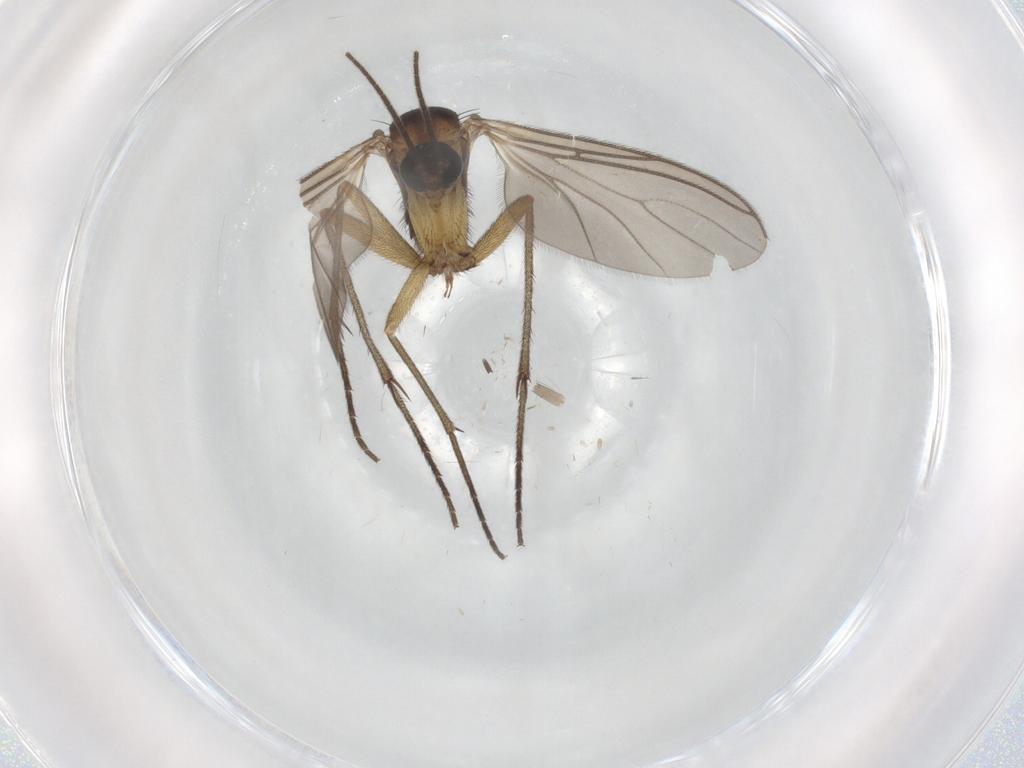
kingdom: Animalia
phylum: Arthropoda
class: Insecta
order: Diptera
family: Sciaridae
